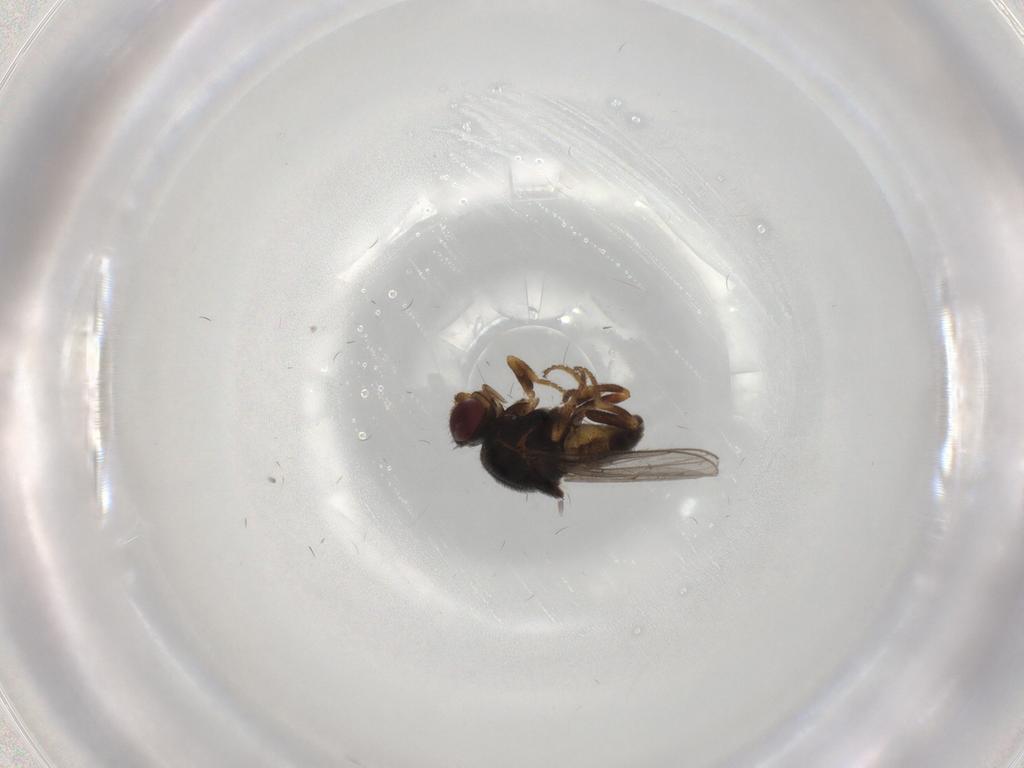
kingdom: Animalia
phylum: Arthropoda
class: Insecta
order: Diptera
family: Chloropidae
